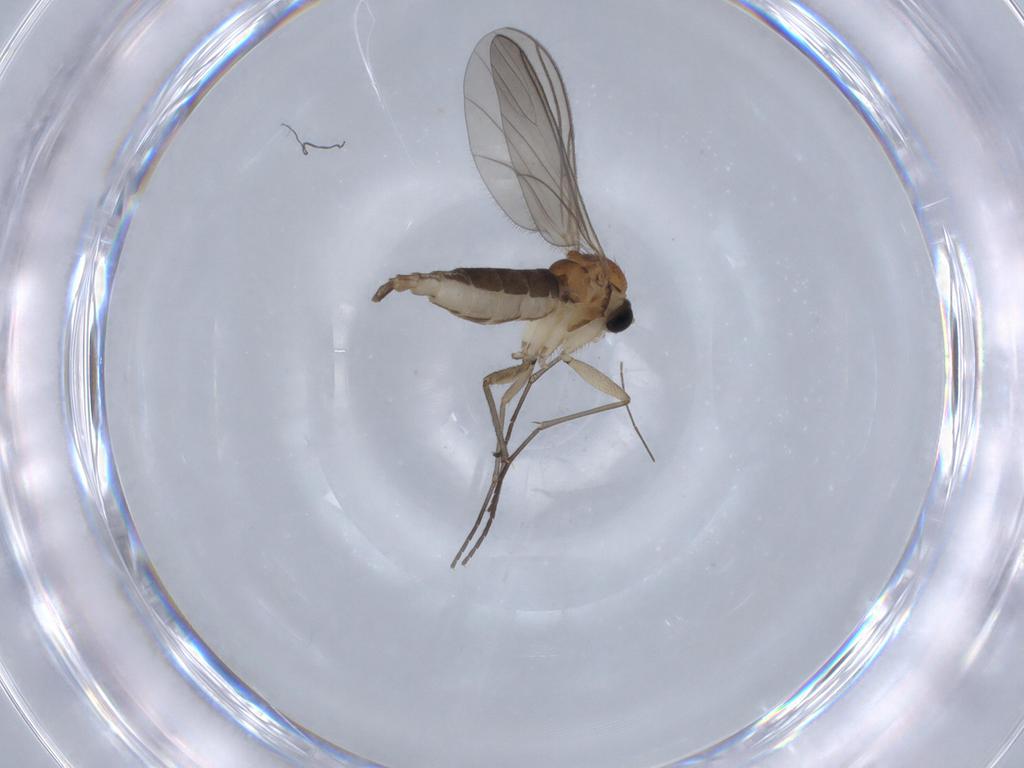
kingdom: Animalia
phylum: Arthropoda
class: Insecta
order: Diptera
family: Sciaridae
